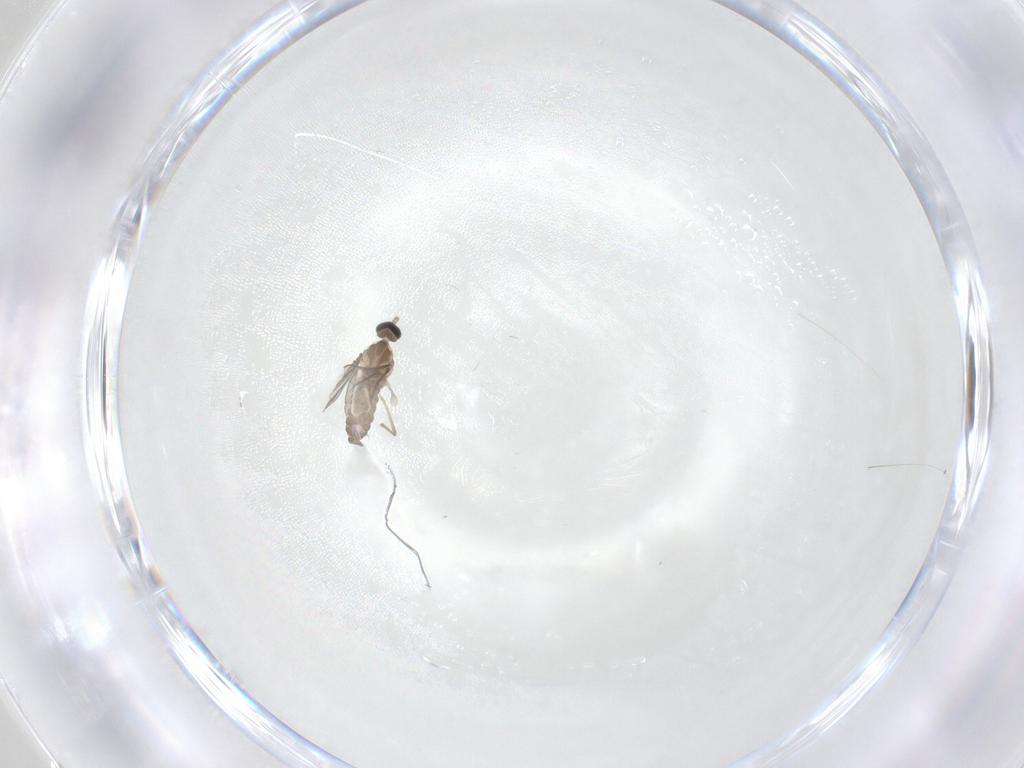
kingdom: Animalia
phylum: Arthropoda
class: Insecta
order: Diptera
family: Cecidomyiidae
